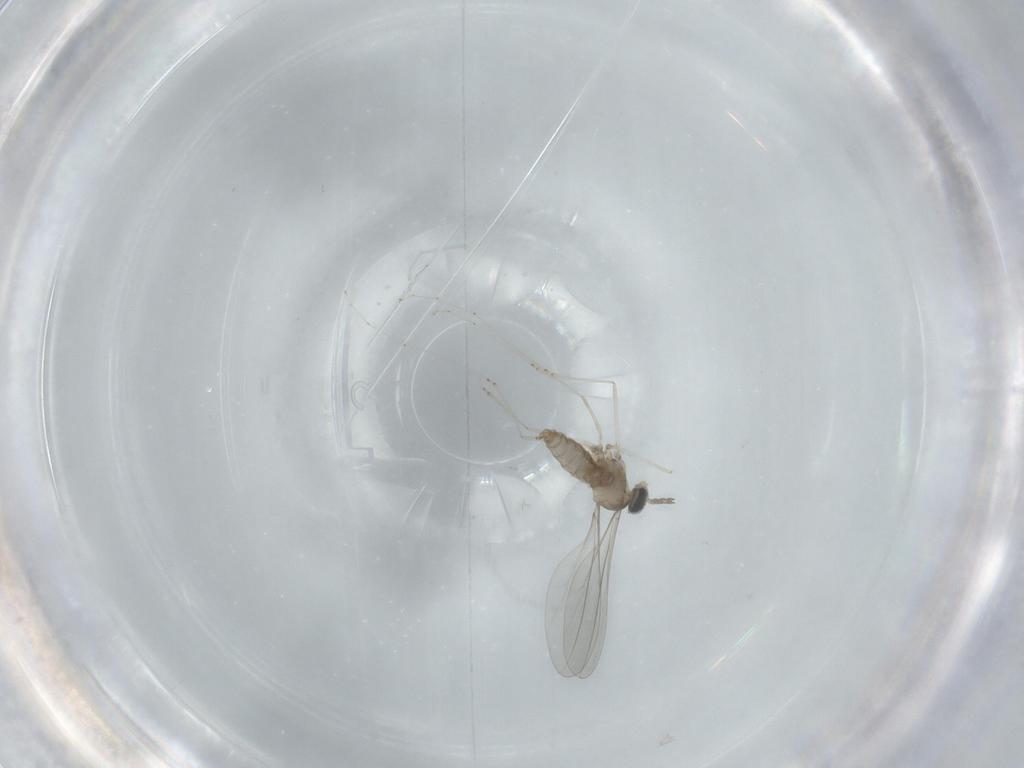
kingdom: Animalia
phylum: Arthropoda
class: Insecta
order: Diptera
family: Cecidomyiidae
